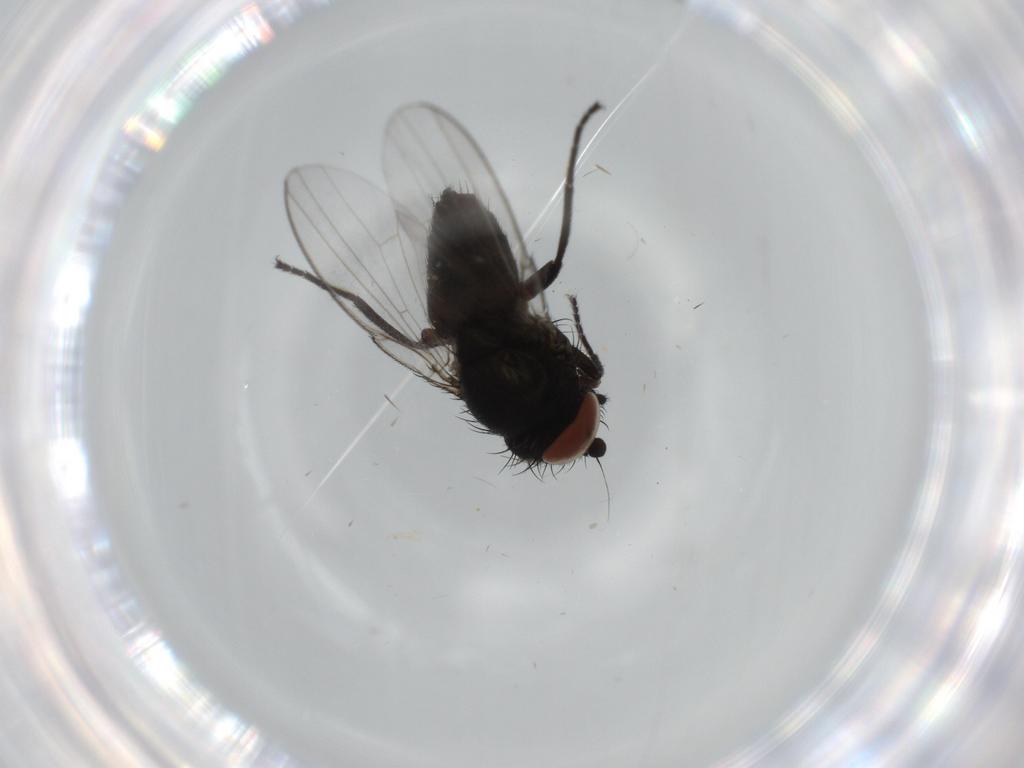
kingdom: Animalia
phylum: Arthropoda
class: Insecta
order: Diptera
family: Milichiidae
